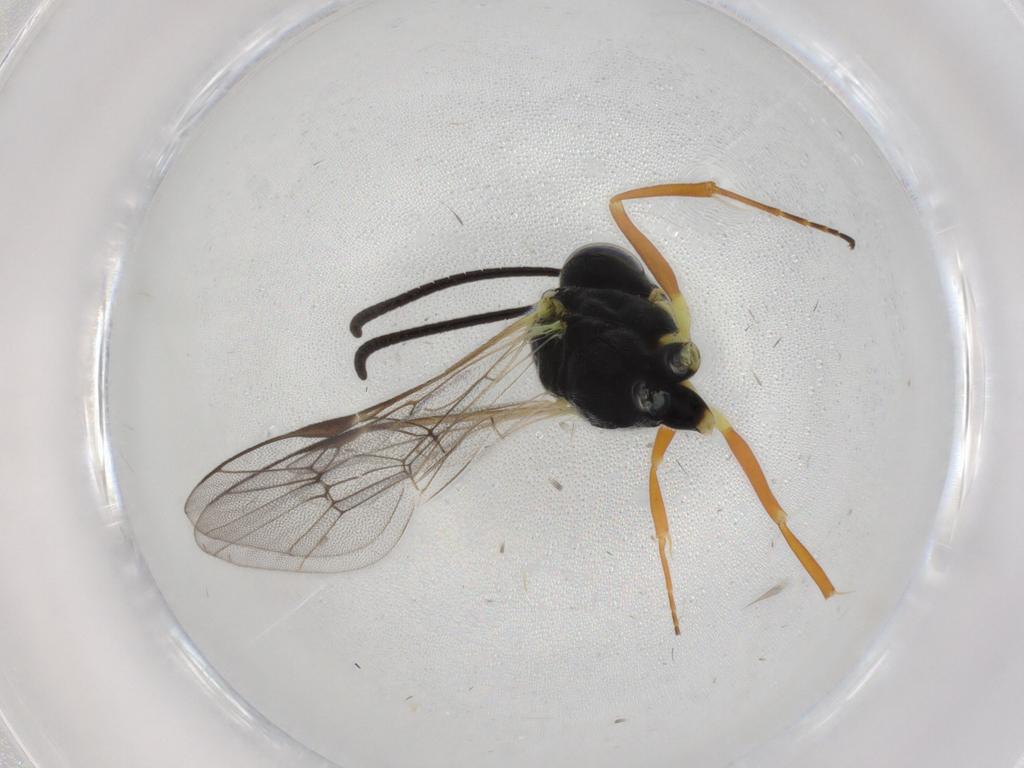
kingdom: Animalia
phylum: Arthropoda
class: Insecta
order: Hymenoptera
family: Ichneumonidae
